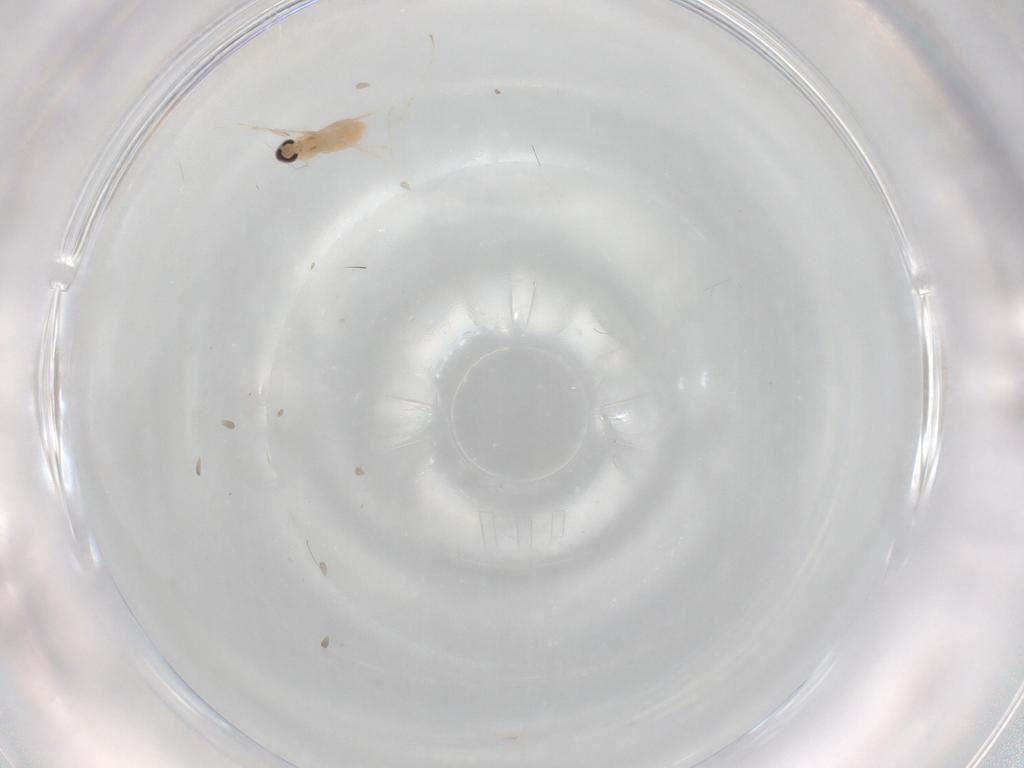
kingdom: Animalia
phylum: Arthropoda
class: Insecta
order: Diptera
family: Cecidomyiidae
